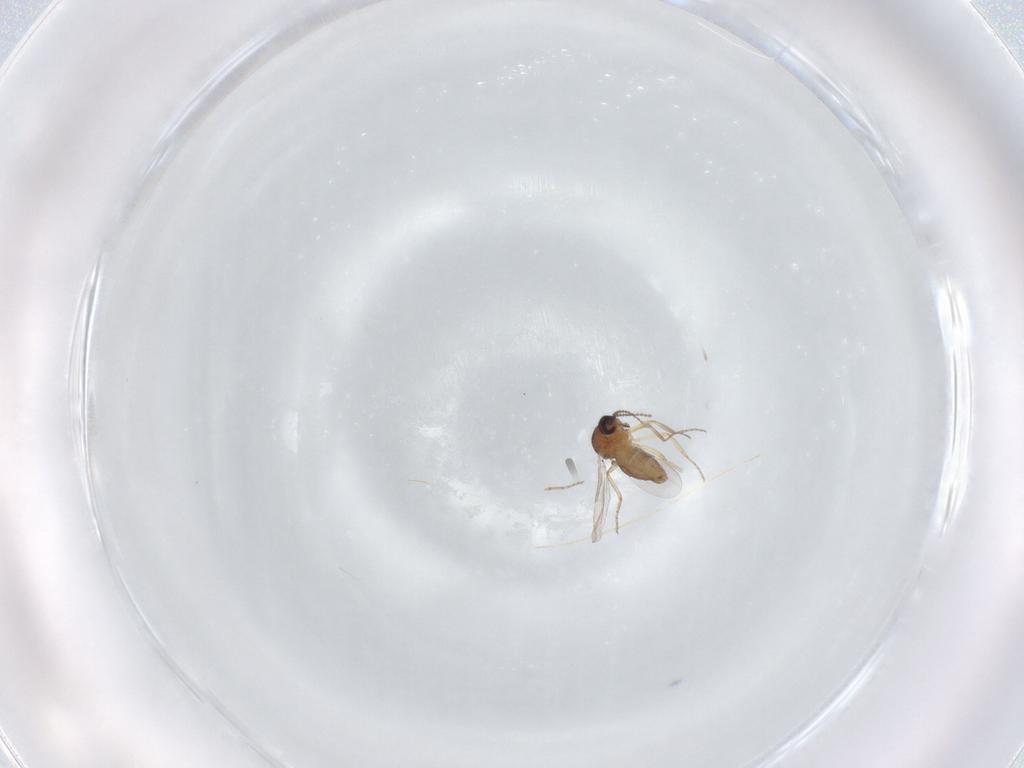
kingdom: Animalia
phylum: Arthropoda
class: Insecta
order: Diptera
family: Ceratopogonidae
